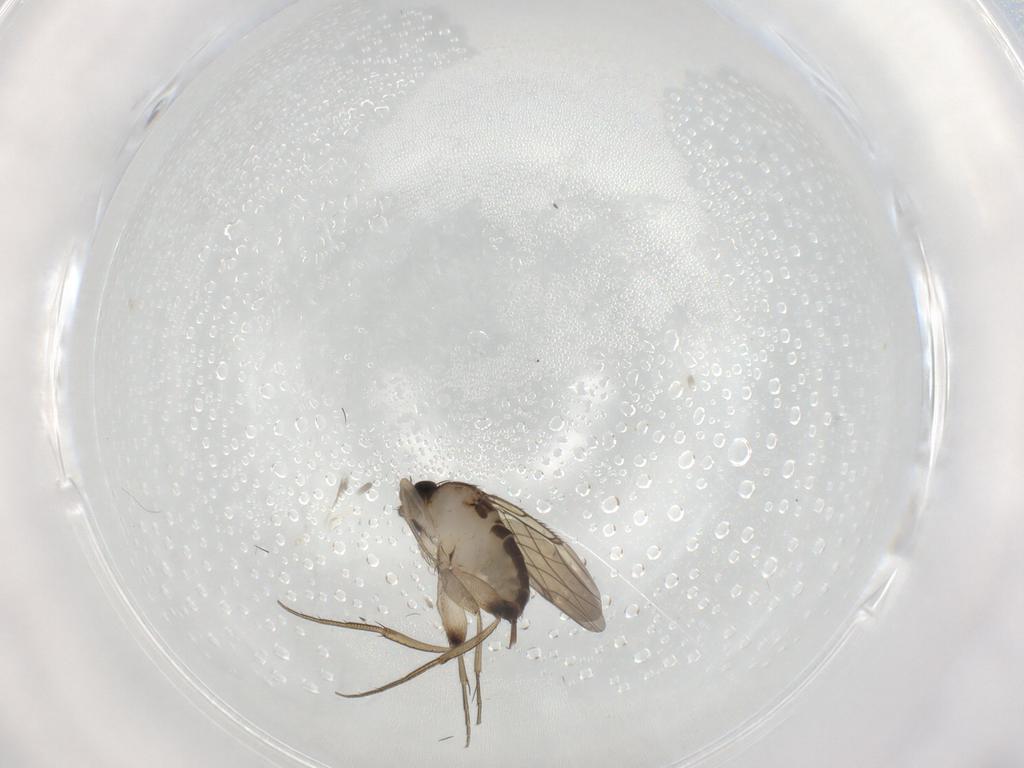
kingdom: Animalia
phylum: Arthropoda
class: Insecta
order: Diptera
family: Phoridae
